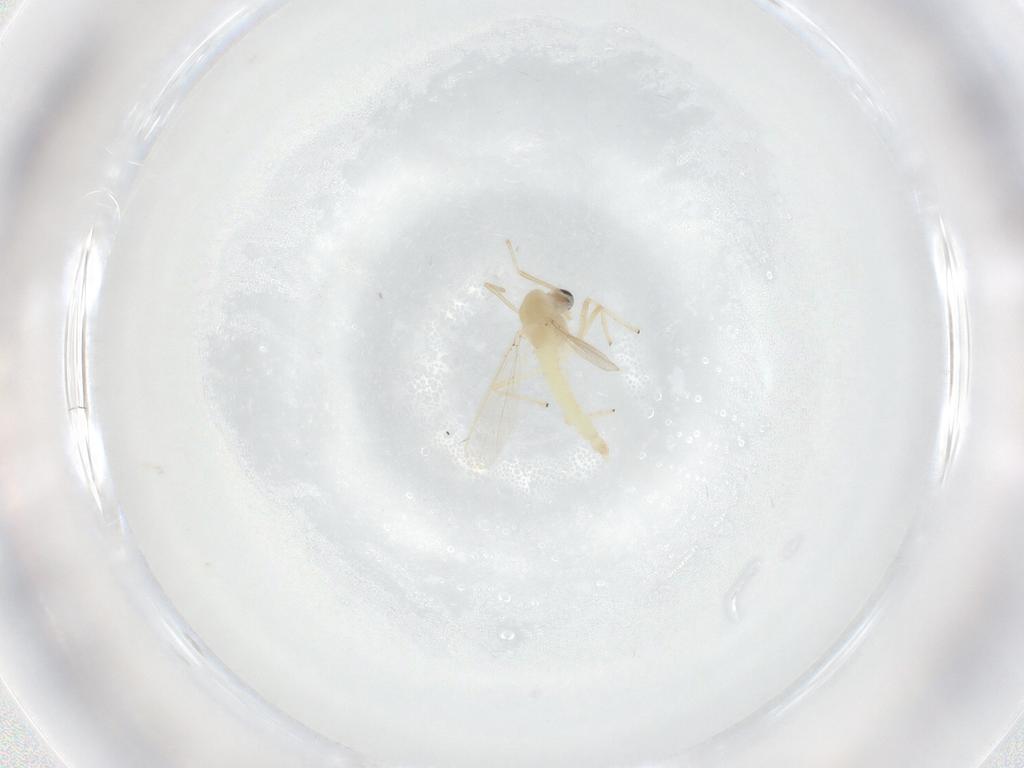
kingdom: Animalia
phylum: Arthropoda
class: Insecta
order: Diptera
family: Chironomidae
